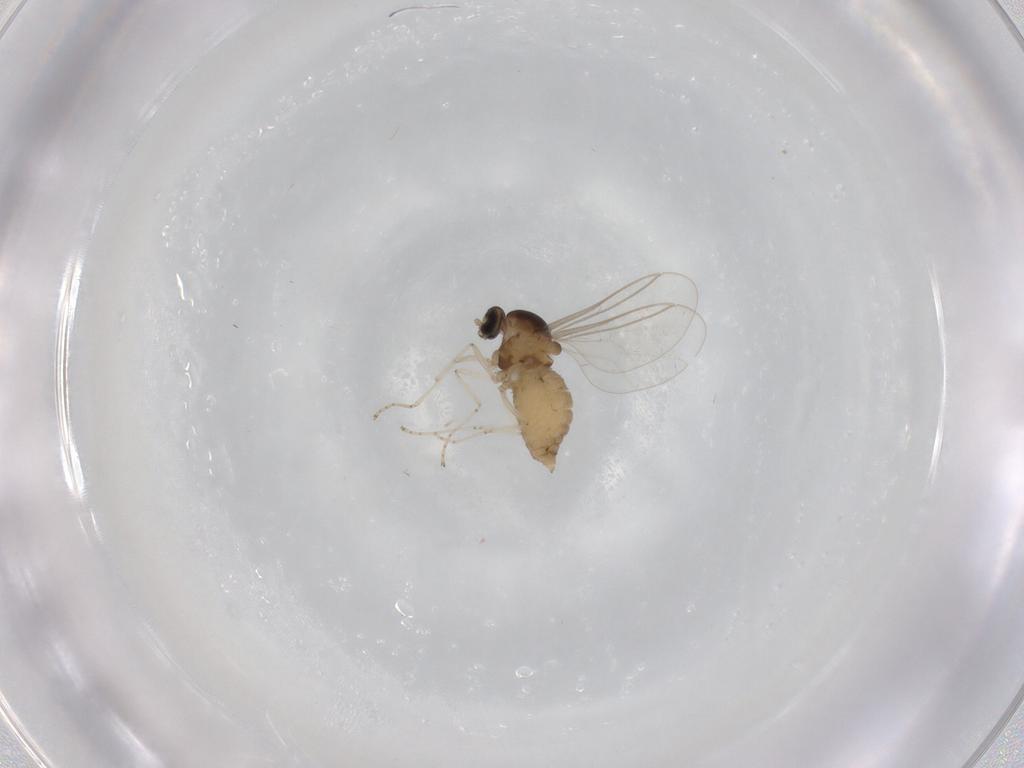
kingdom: Animalia
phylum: Arthropoda
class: Insecta
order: Diptera
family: Cecidomyiidae
